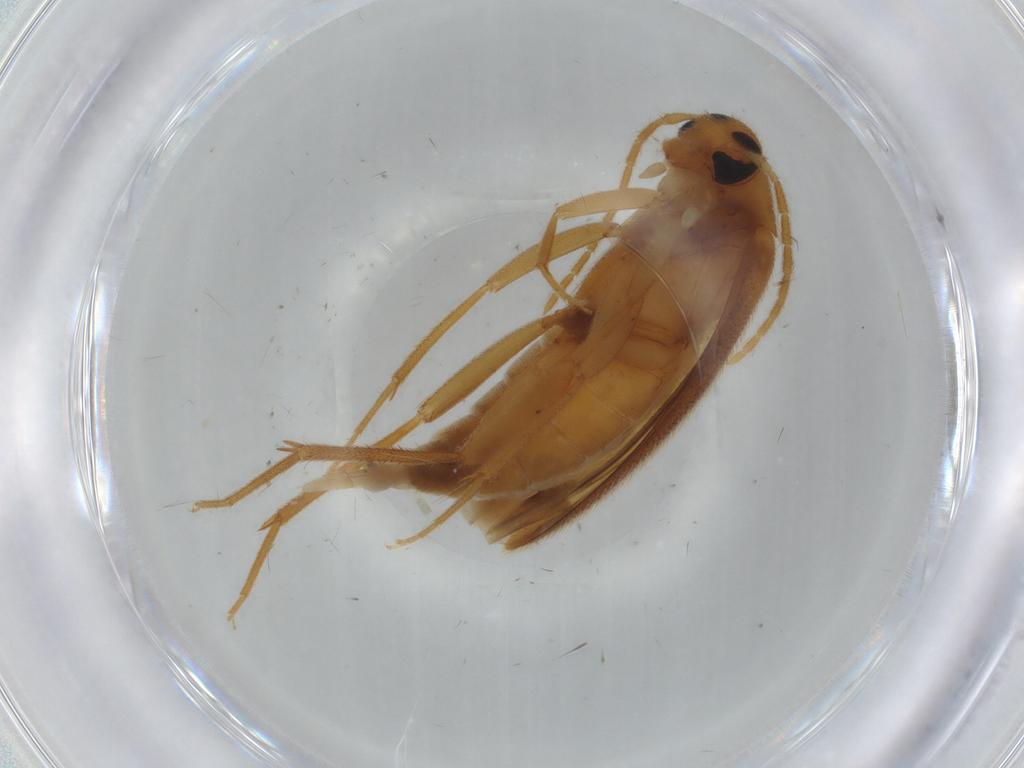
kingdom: Animalia
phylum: Arthropoda
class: Insecta
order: Coleoptera
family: Scraptiidae
